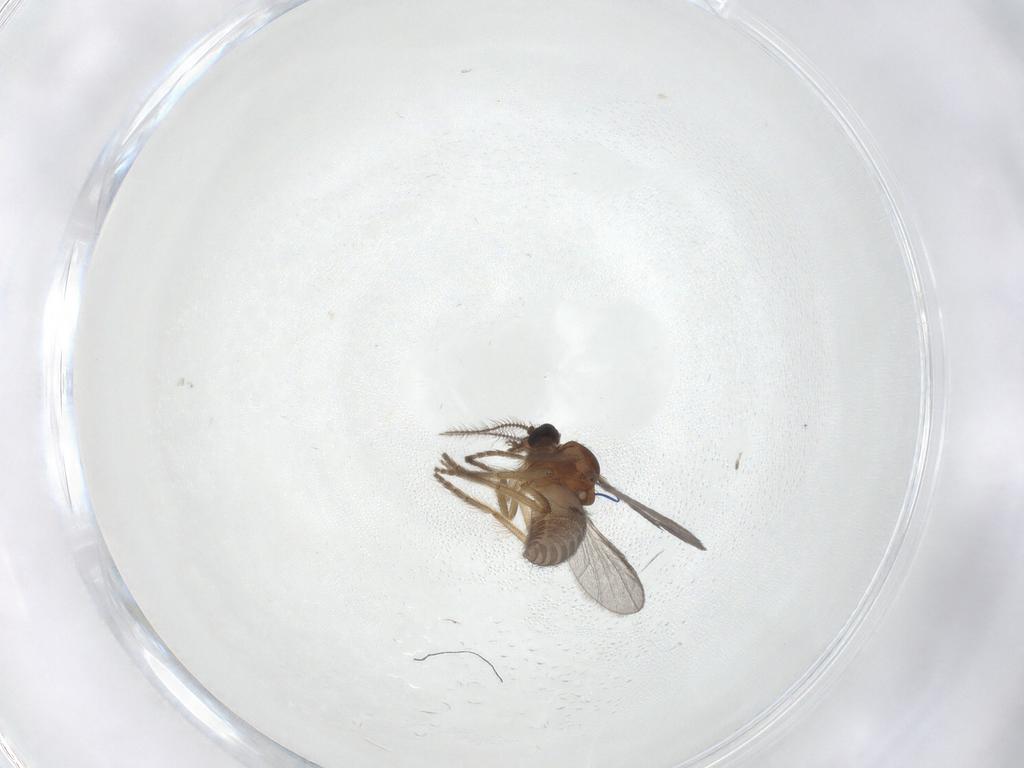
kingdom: Animalia
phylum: Arthropoda
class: Insecta
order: Diptera
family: Ceratopogonidae
